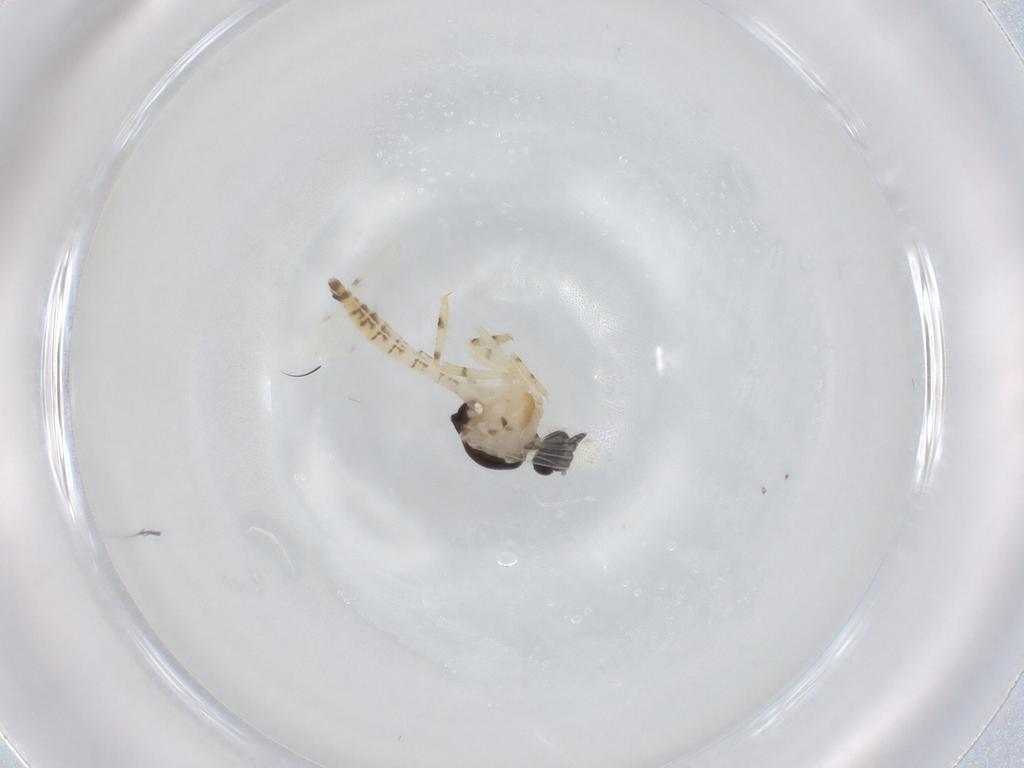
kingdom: Animalia
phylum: Arthropoda
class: Insecta
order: Diptera
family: Ceratopogonidae
